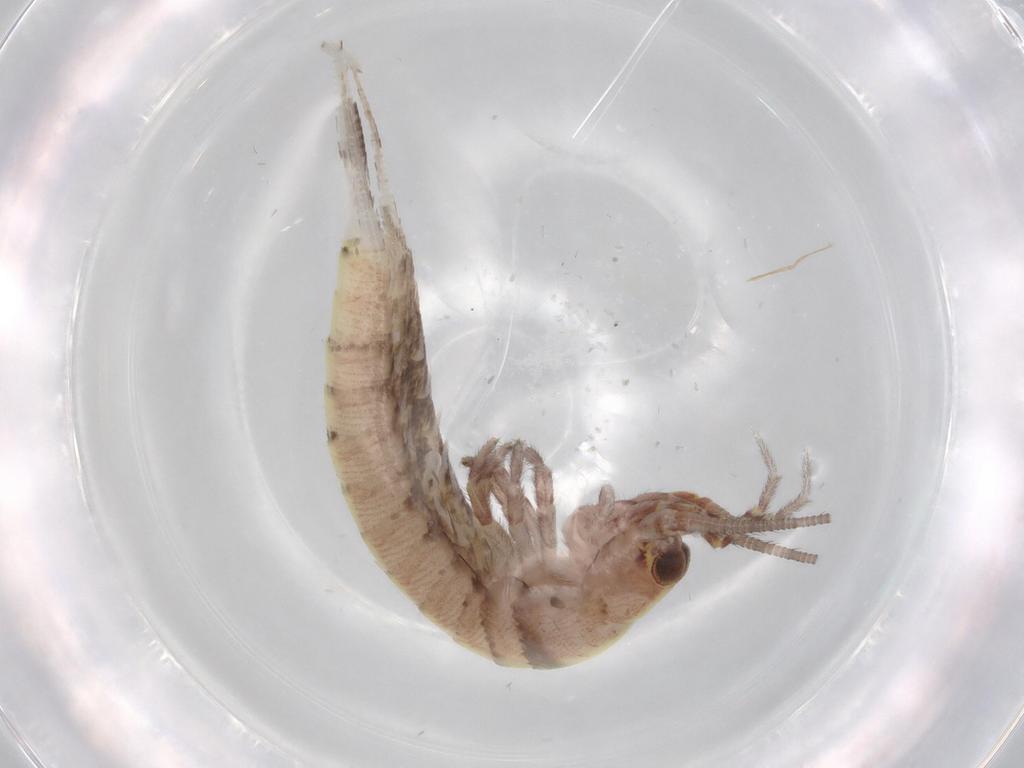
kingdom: Animalia
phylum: Arthropoda
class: Insecta
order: Archaeognatha
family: Machilidae
